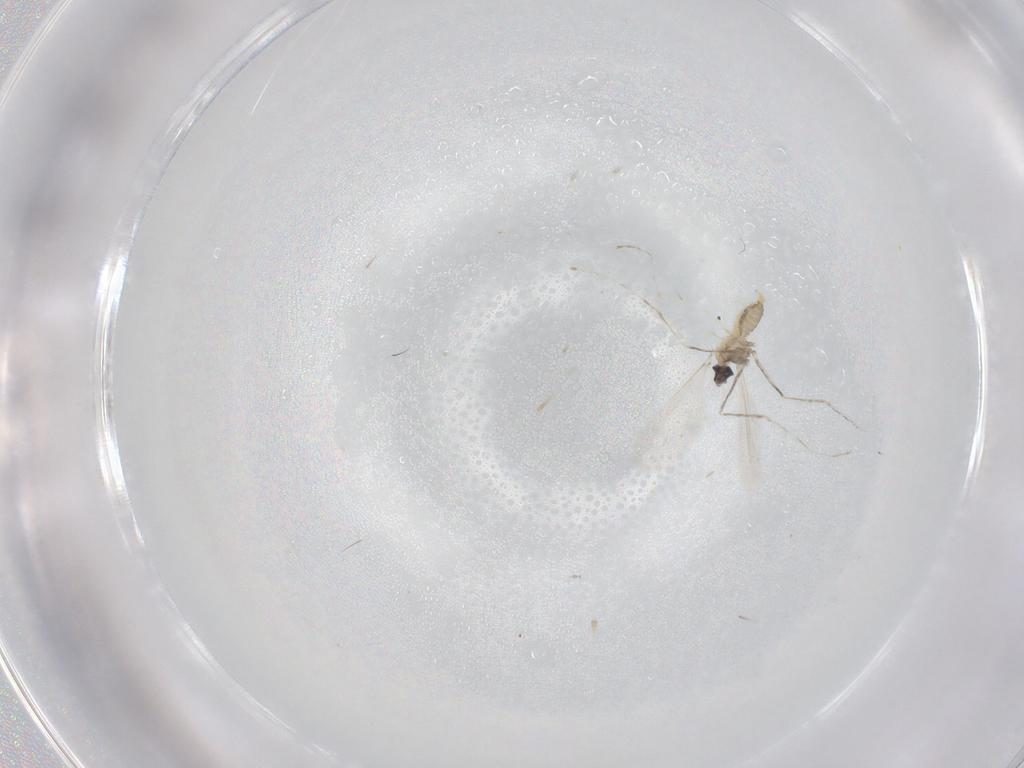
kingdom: Animalia
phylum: Arthropoda
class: Insecta
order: Diptera
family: Cecidomyiidae
